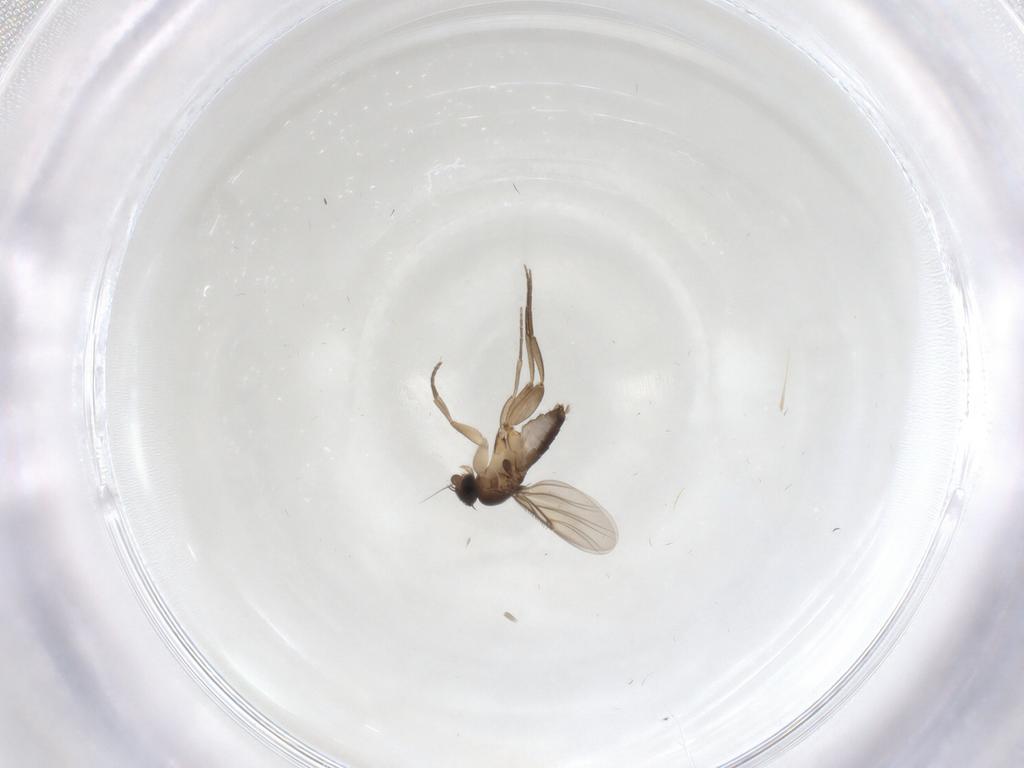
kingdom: Animalia
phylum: Arthropoda
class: Insecta
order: Diptera
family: Phoridae
